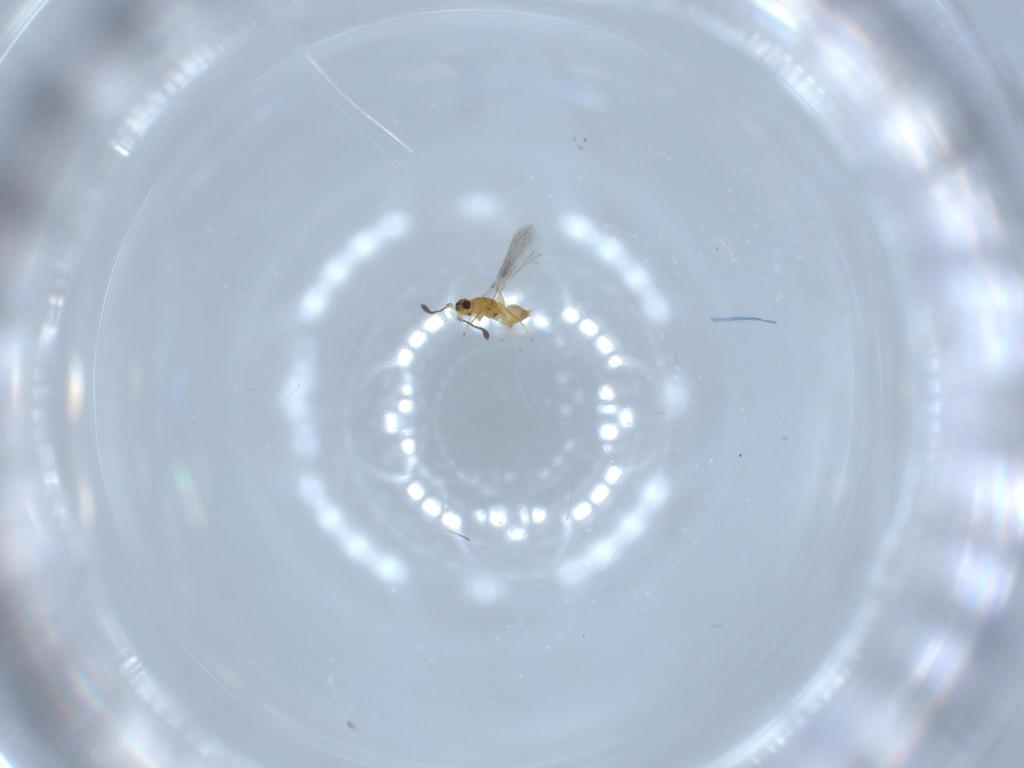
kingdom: Animalia
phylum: Arthropoda
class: Insecta
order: Hymenoptera
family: Mymaridae
